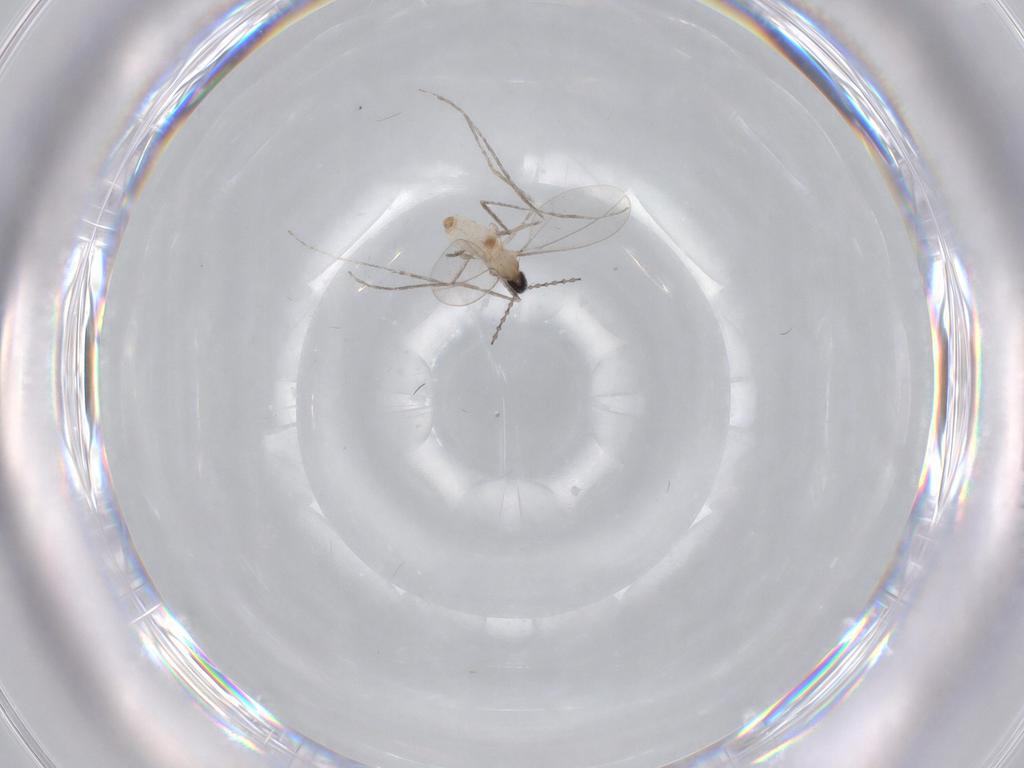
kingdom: Animalia
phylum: Arthropoda
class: Insecta
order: Diptera
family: Cecidomyiidae
